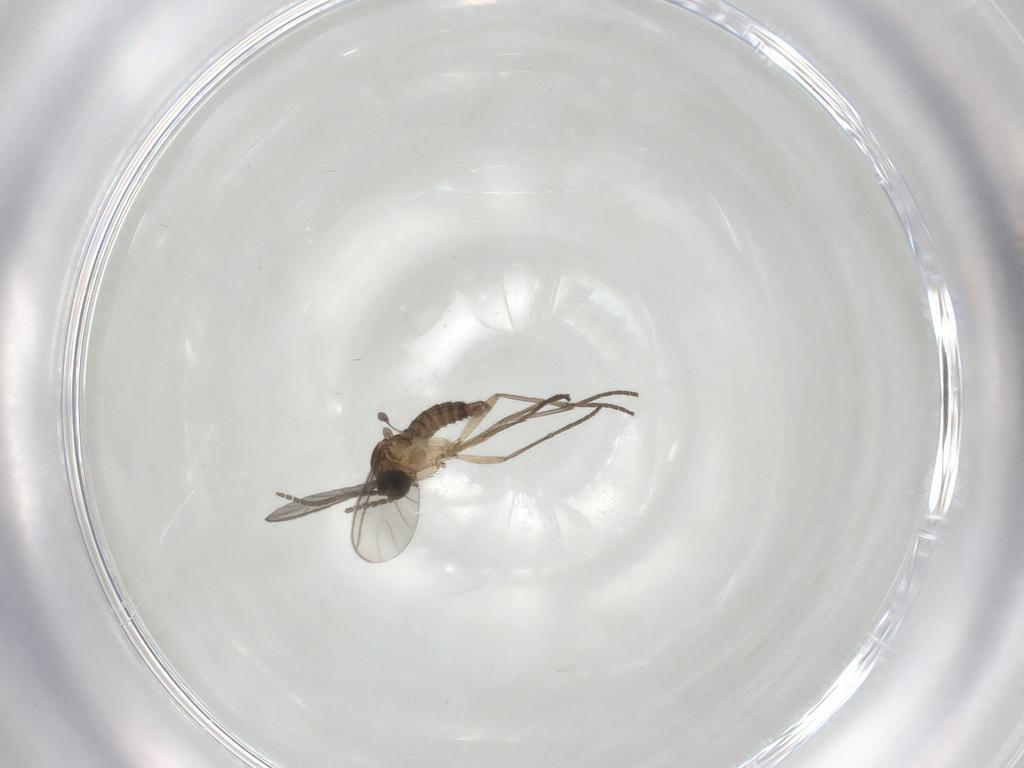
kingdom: Animalia
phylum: Arthropoda
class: Insecta
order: Diptera
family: Sciaridae
